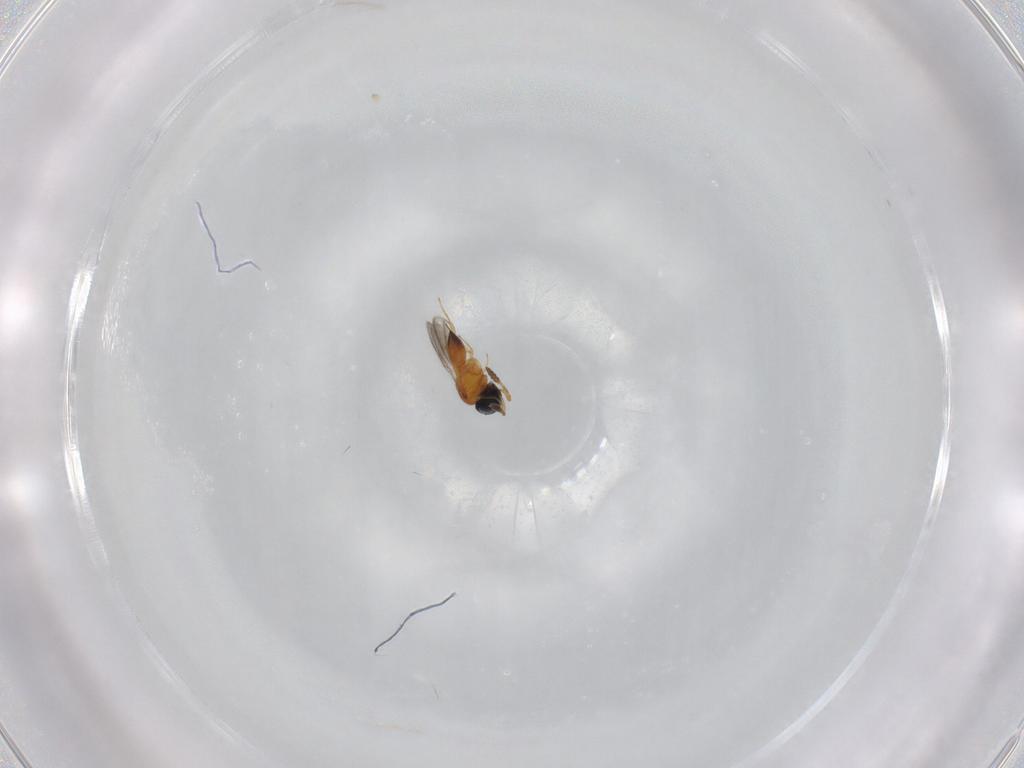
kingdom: Animalia
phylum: Arthropoda
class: Insecta
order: Hymenoptera
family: Scelionidae
